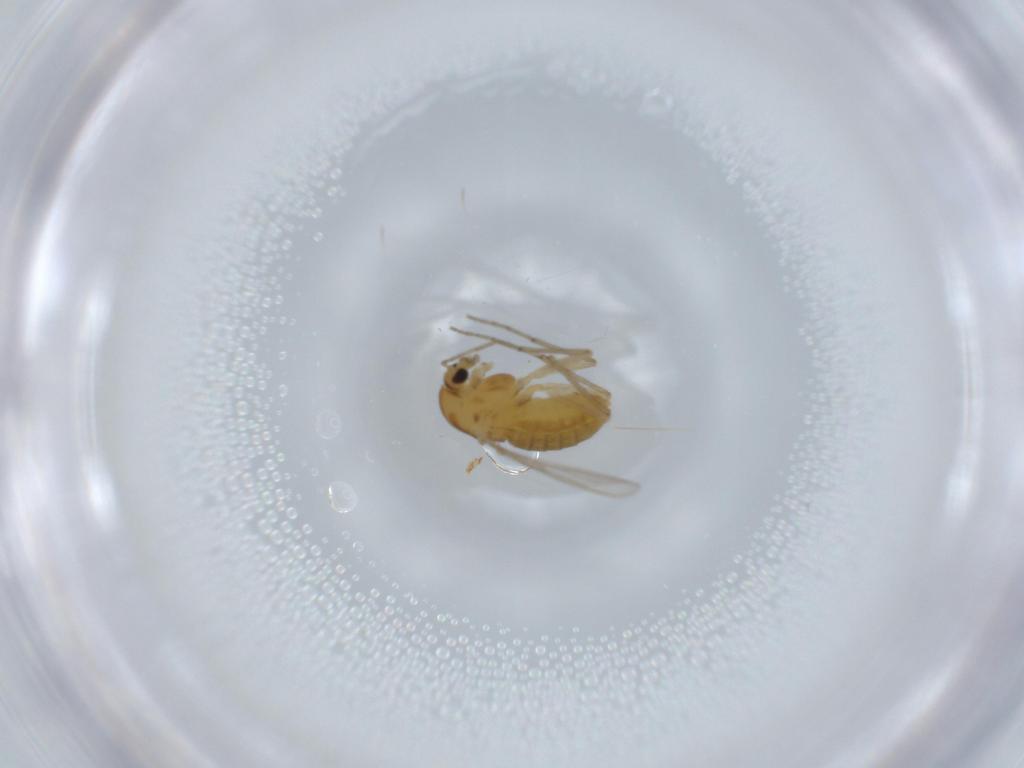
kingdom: Animalia
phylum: Arthropoda
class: Insecta
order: Diptera
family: Chironomidae
